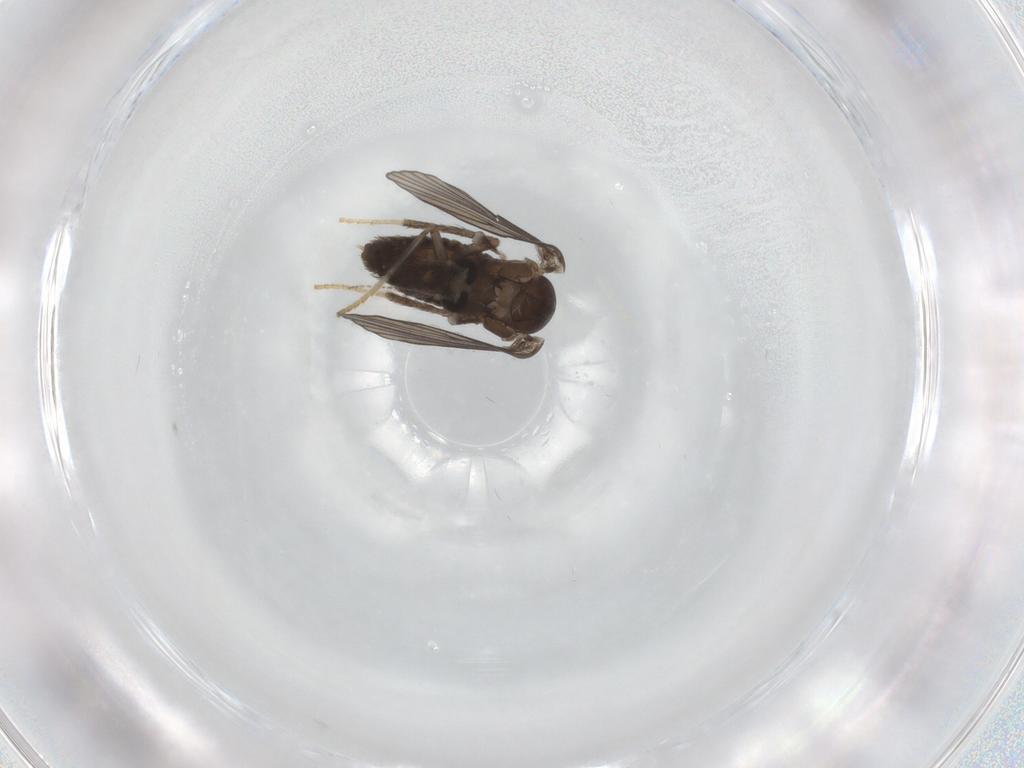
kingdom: Animalia
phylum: Arthropoda
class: Insecta
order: Diptera
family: Psychodidae
